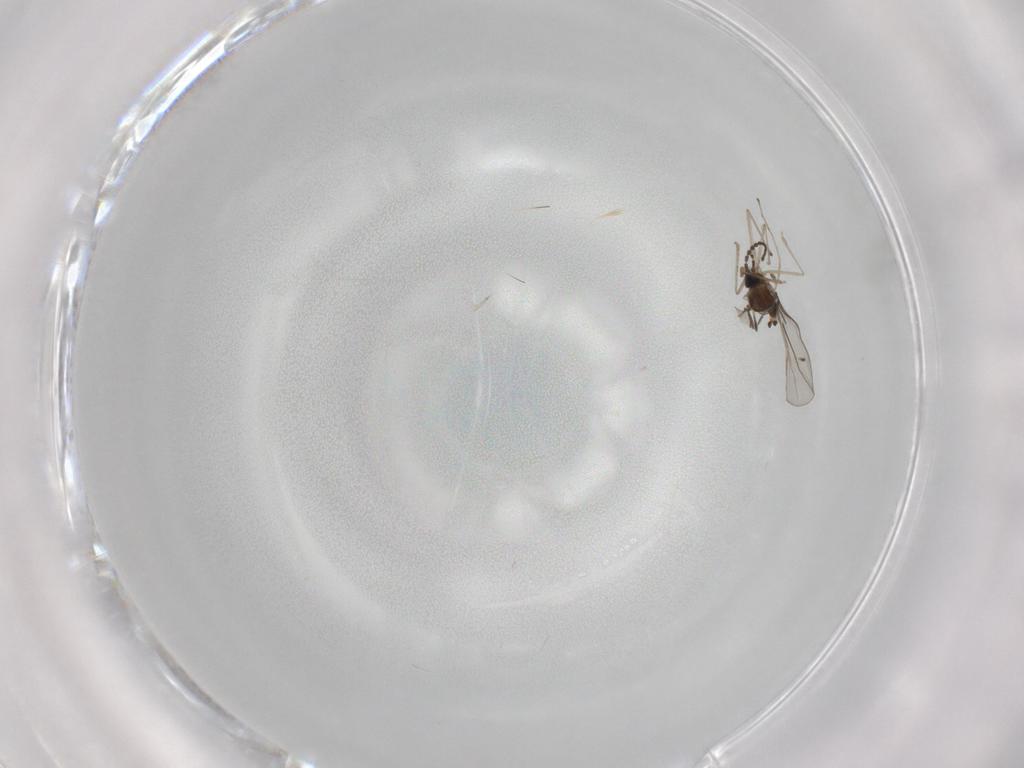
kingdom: Animalia
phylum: Arthropoda
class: Insecta
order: Diptera
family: Cecidomyiidae
